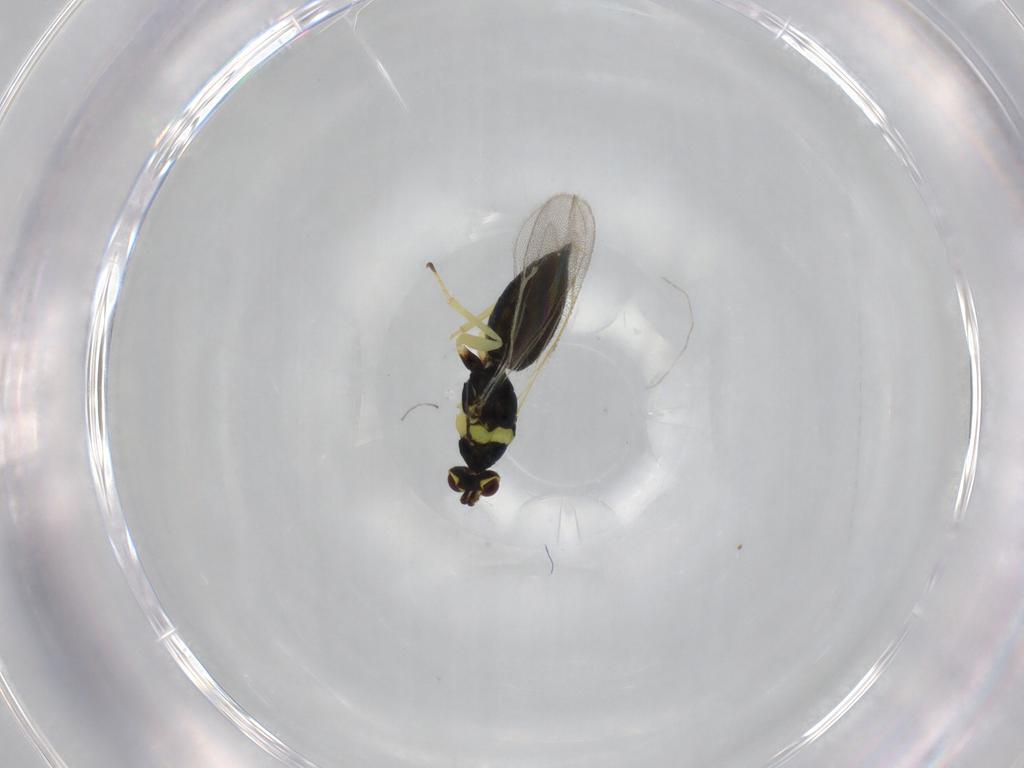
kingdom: Animalia
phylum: Arthropoda
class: Insecta
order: Hymenoptera
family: Eulophidae
